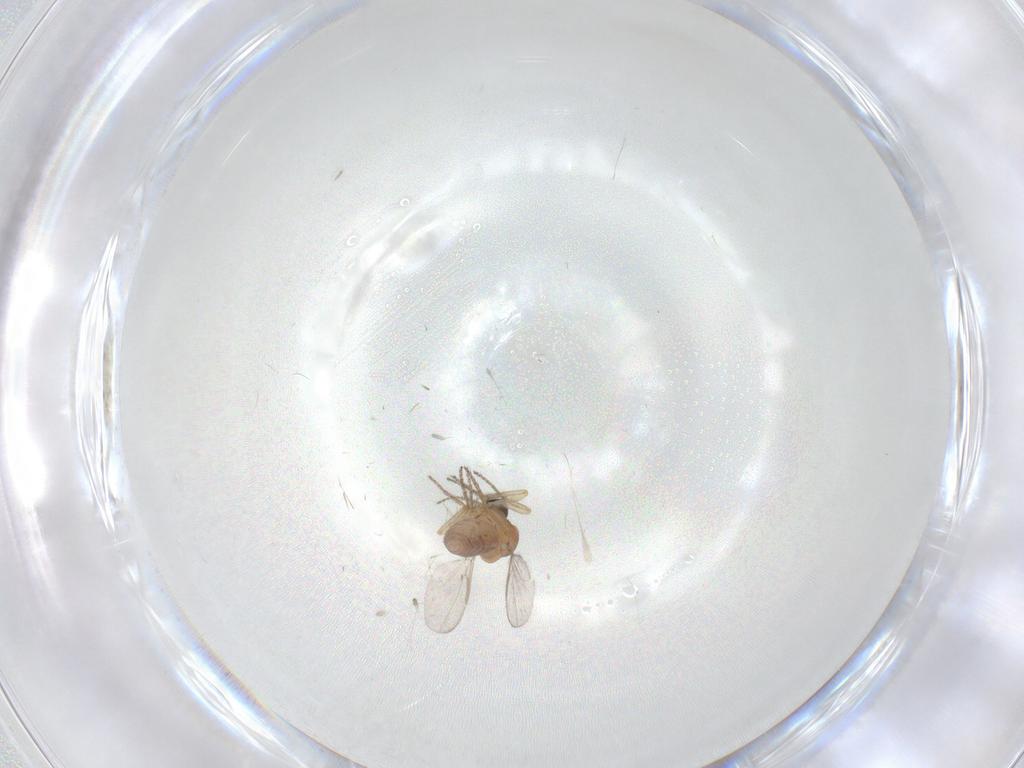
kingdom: Animalia
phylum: Arthropoda
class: Insecta
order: Diptera
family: Ceratopogonidae
